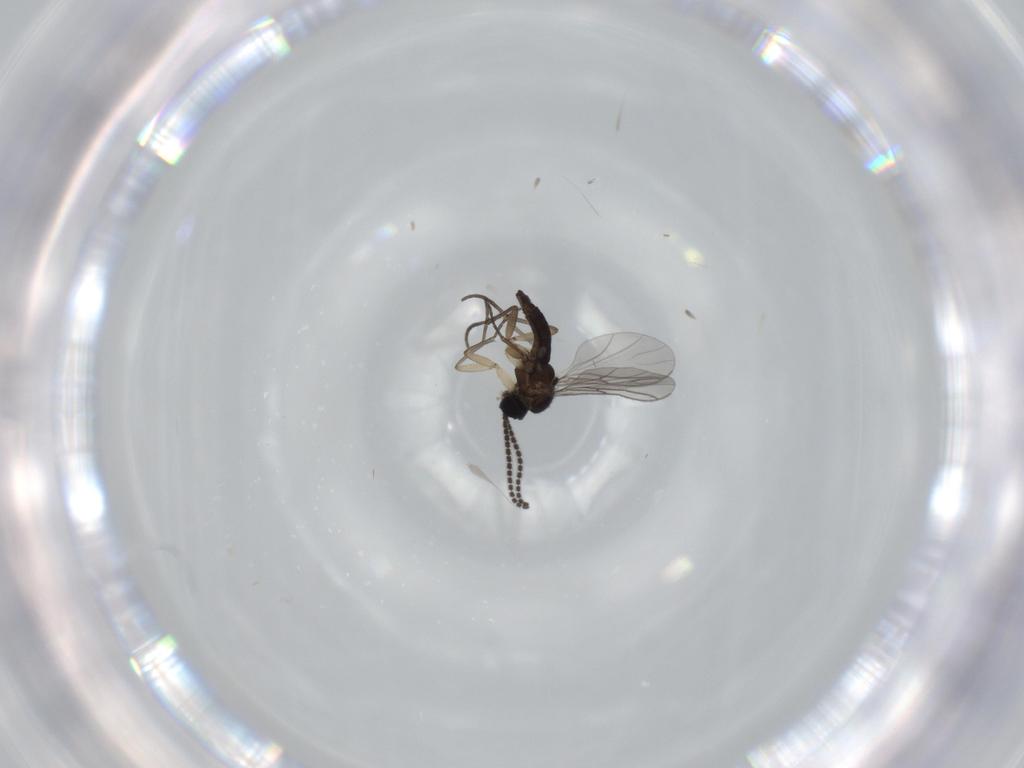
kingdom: Animalia
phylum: Arthropoda
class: Insecta
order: Diptera
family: Sciaridae
